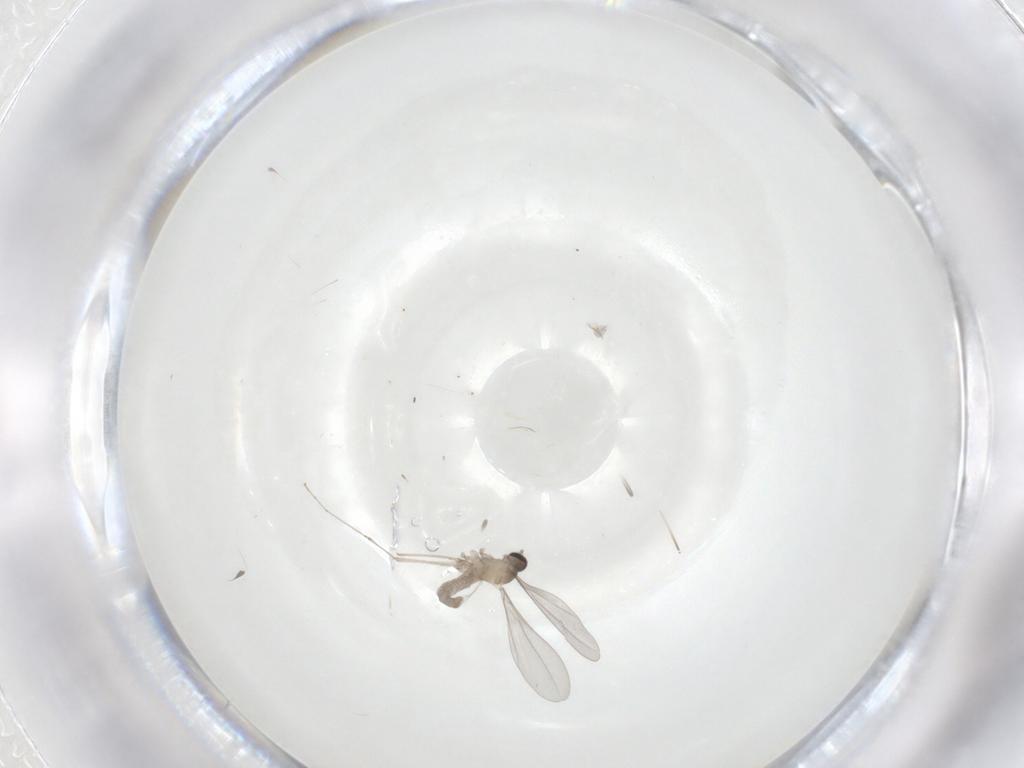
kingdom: Animalia
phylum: Arthropoda
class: Insecta
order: Diptera
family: Cecidomyiidae
